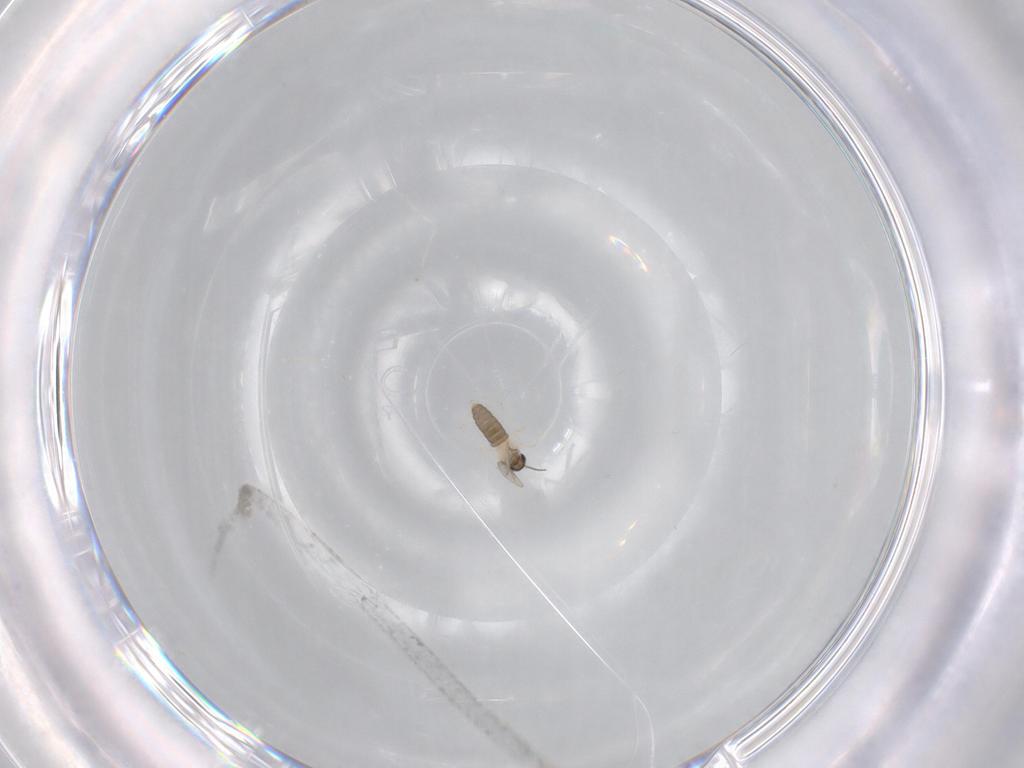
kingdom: Animalia
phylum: Arthropoda
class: Insecta
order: Diptera
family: Cecidomyiidae
